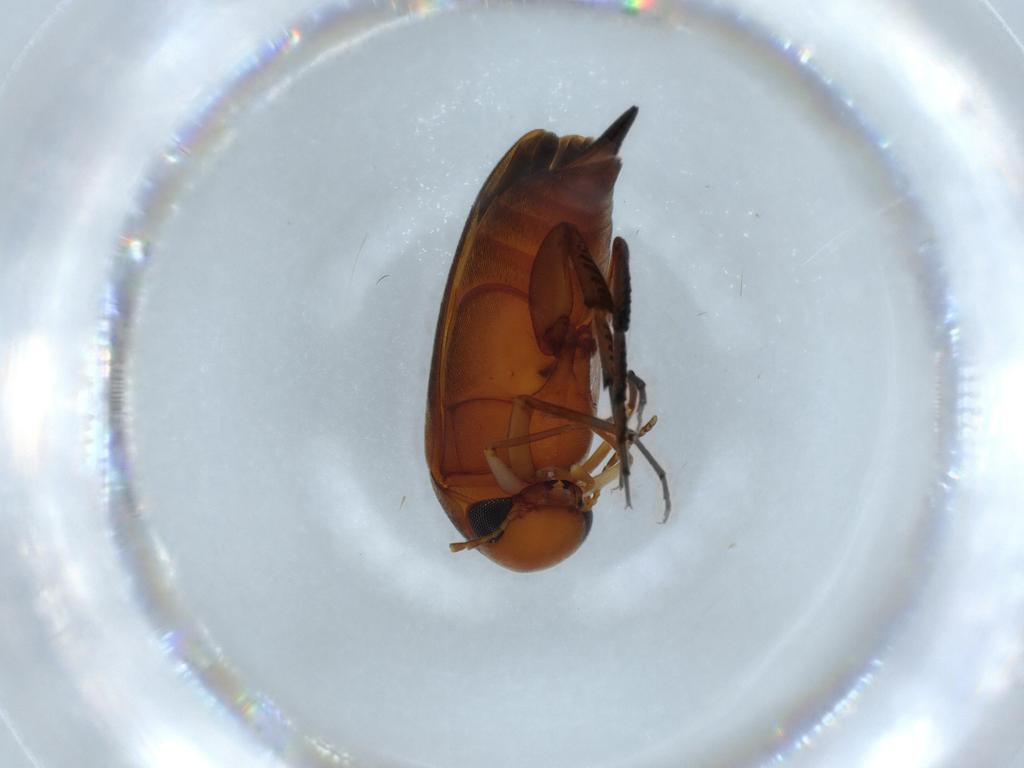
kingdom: Animalia
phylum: Arthropoda
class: Insecta
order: Coleoptera
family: Mordellidae
